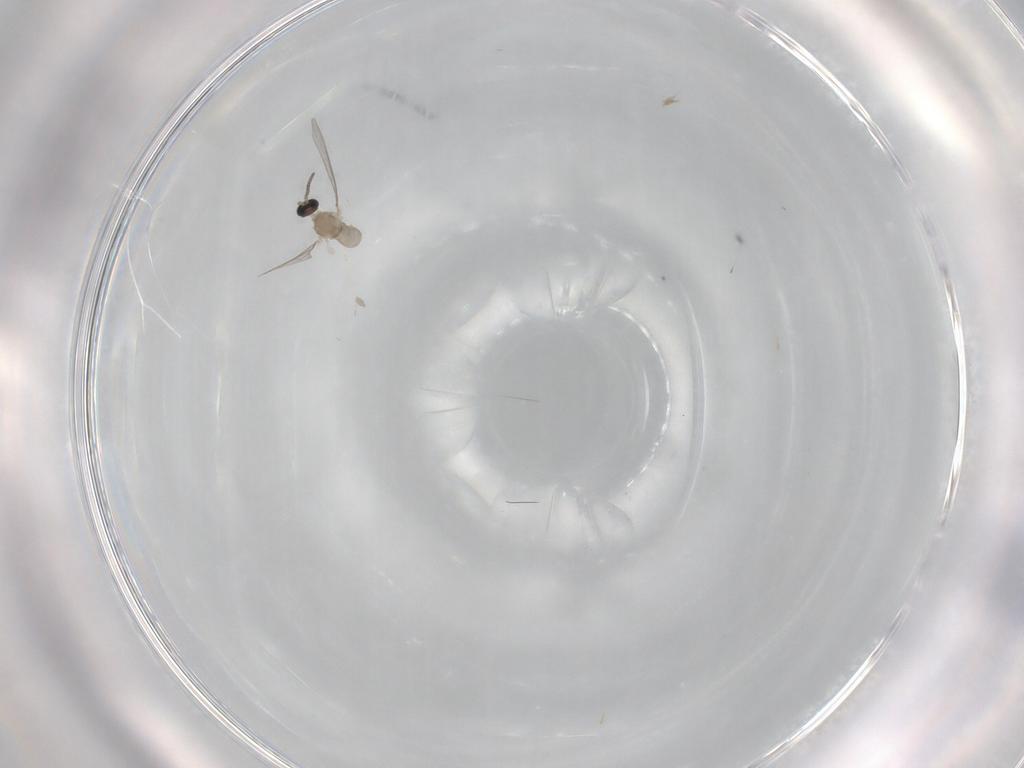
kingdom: Animalia
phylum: Arthropoda
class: Insecta
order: Diptera
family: Cecidomyiidae
